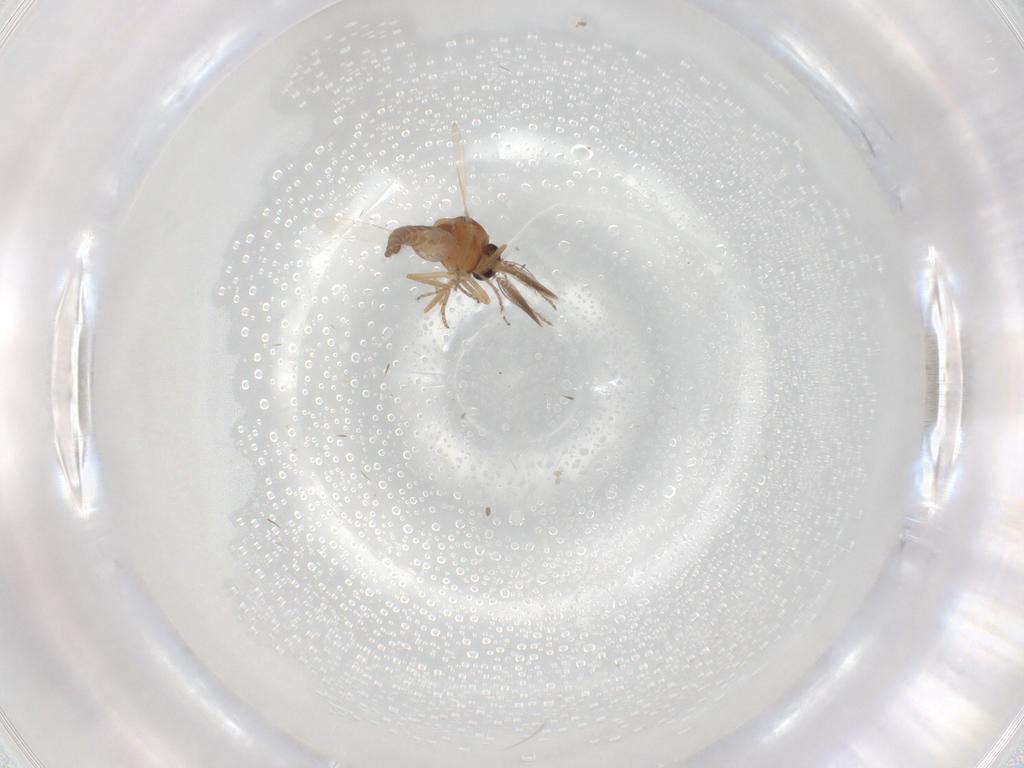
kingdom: Animalia
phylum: Arthropoda
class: Insecta
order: Diptera
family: Ceratopogonidae
